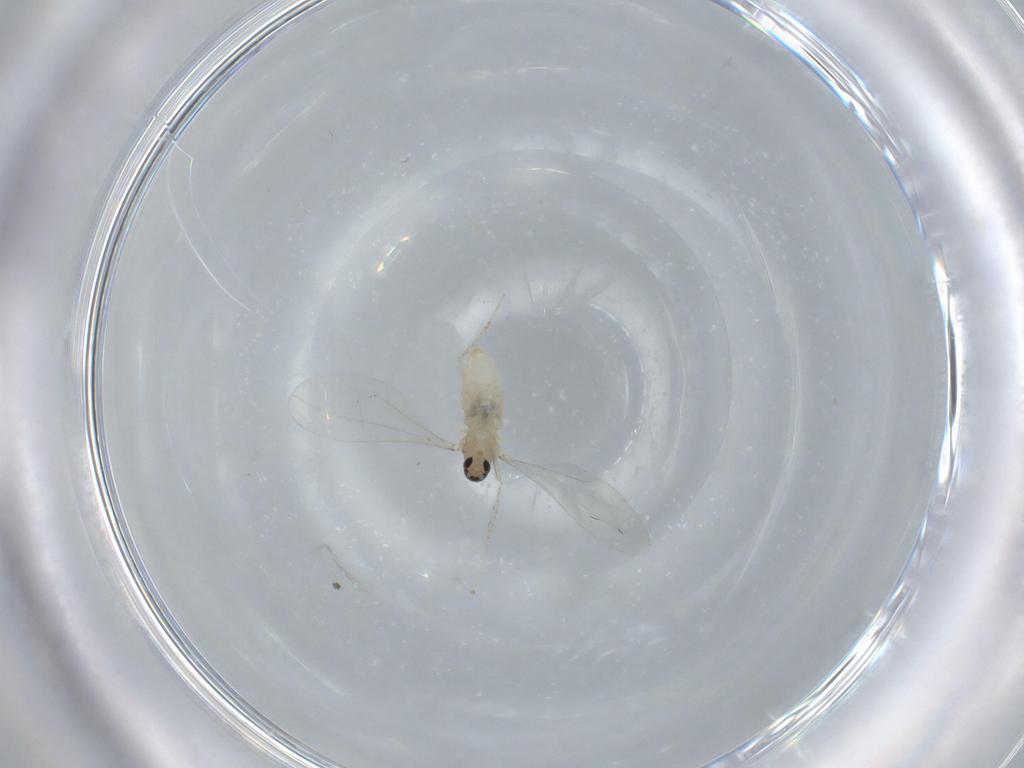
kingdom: Animalia
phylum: Arthropoda
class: Insecta
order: Diptera
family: Cecidomyiidae
